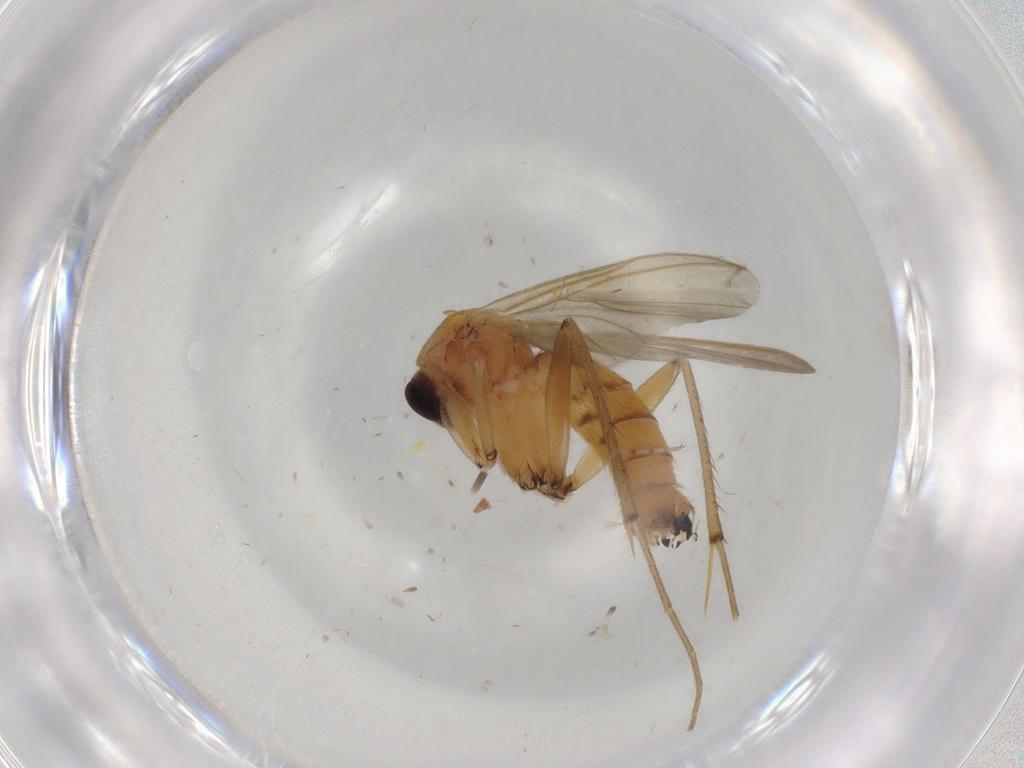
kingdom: Animalia
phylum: Arthropoda
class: Insecta
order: Diptera
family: Mycetophilidae
